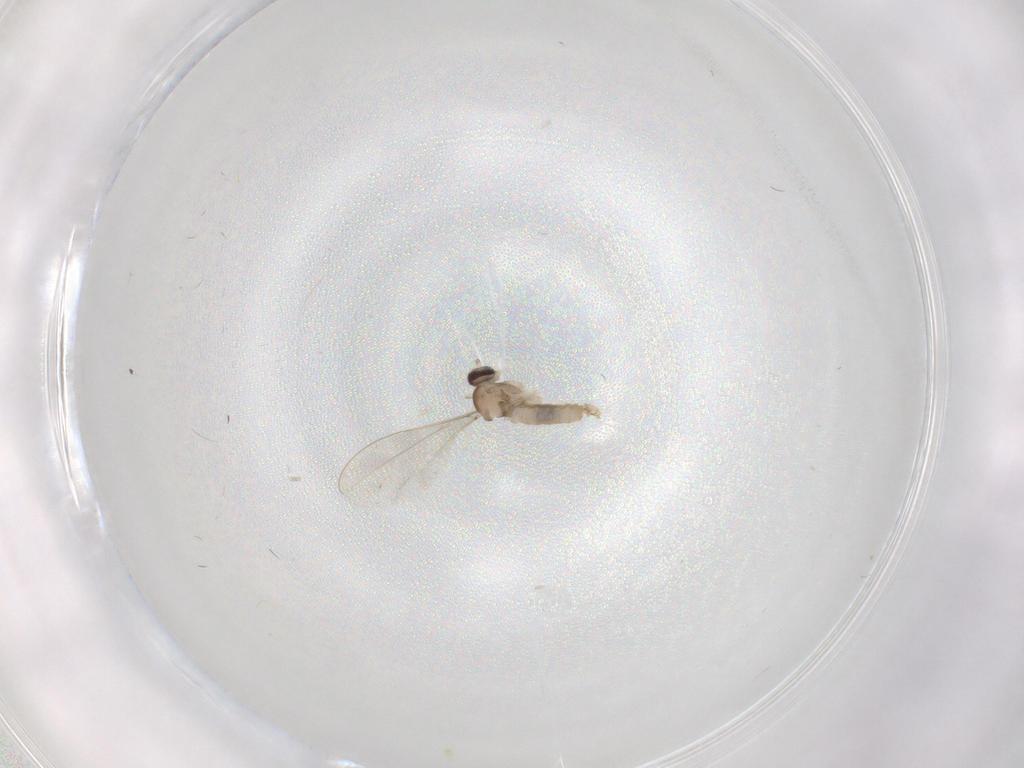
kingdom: Animalia
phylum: Arthropoda
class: Insecta
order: Diptera
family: Cecidomyiidae
